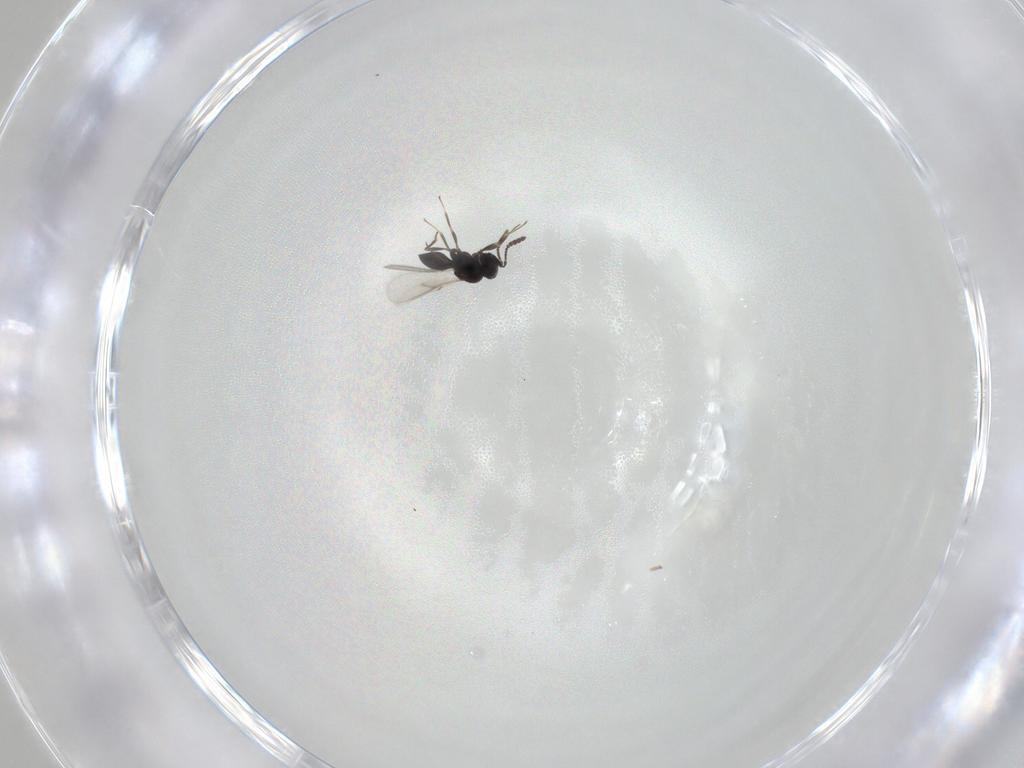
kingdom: Animalia
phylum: Arthropoda
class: Insecta
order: Hymenoptera
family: Scelionidae
